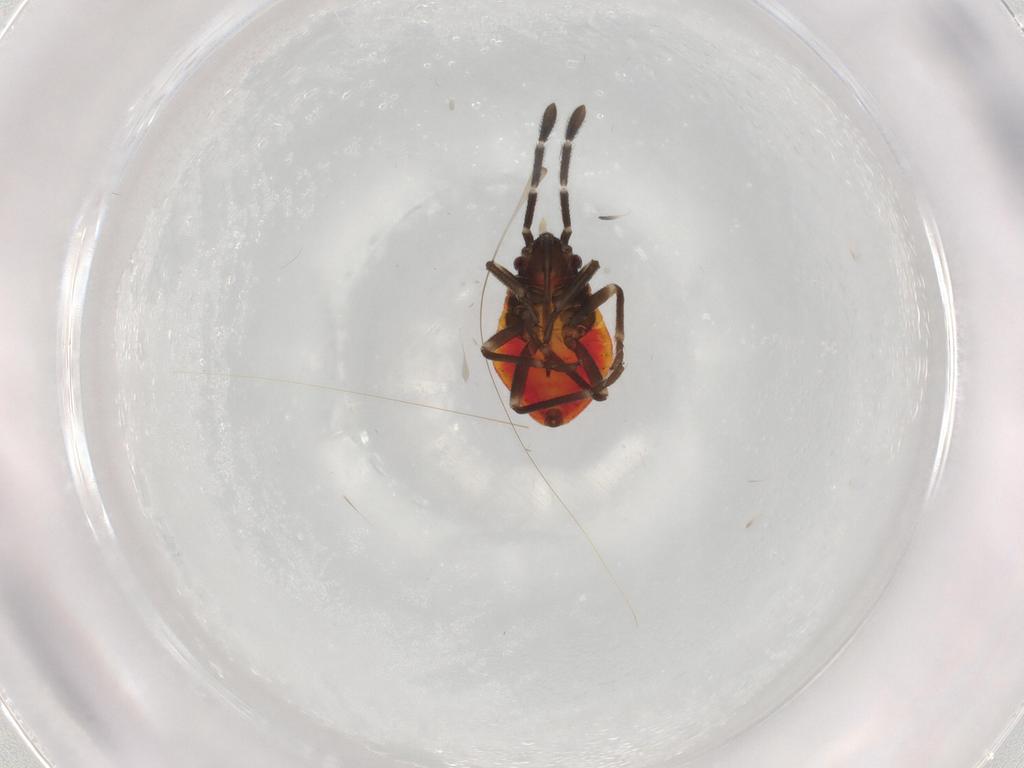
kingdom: Animalia
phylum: Arthropoda
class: Insecta
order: Hemiptera
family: Lygaeidae
